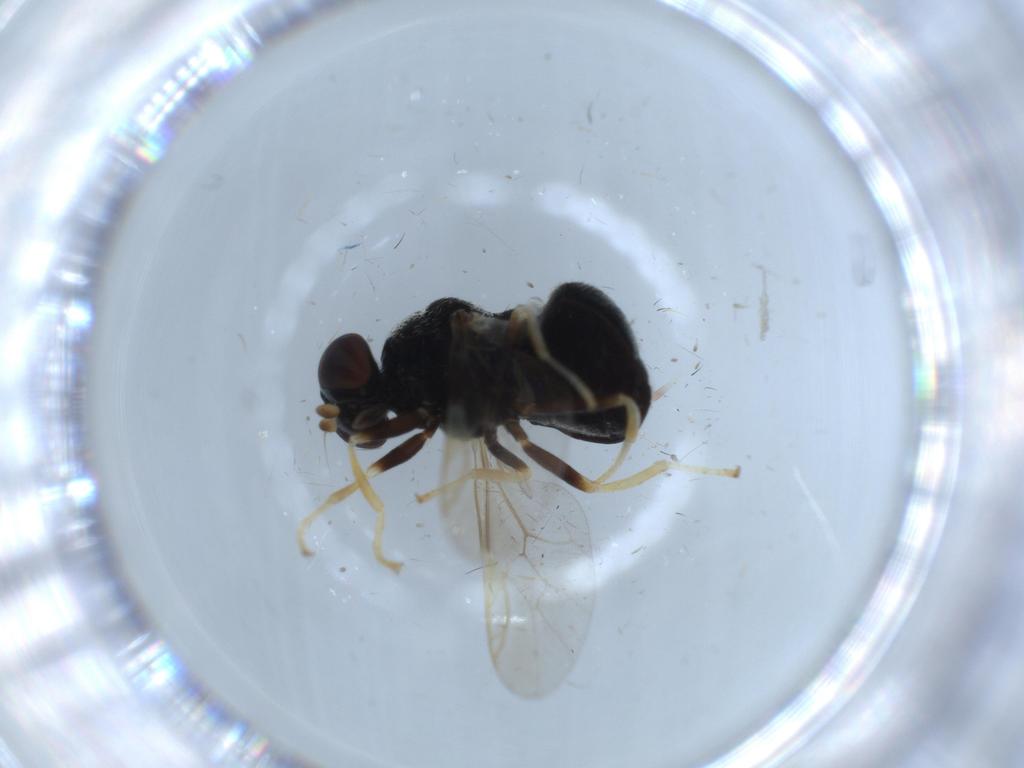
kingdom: Animalia
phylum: Arthropoda
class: Insecta
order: Diptera
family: Stratiomyidae
